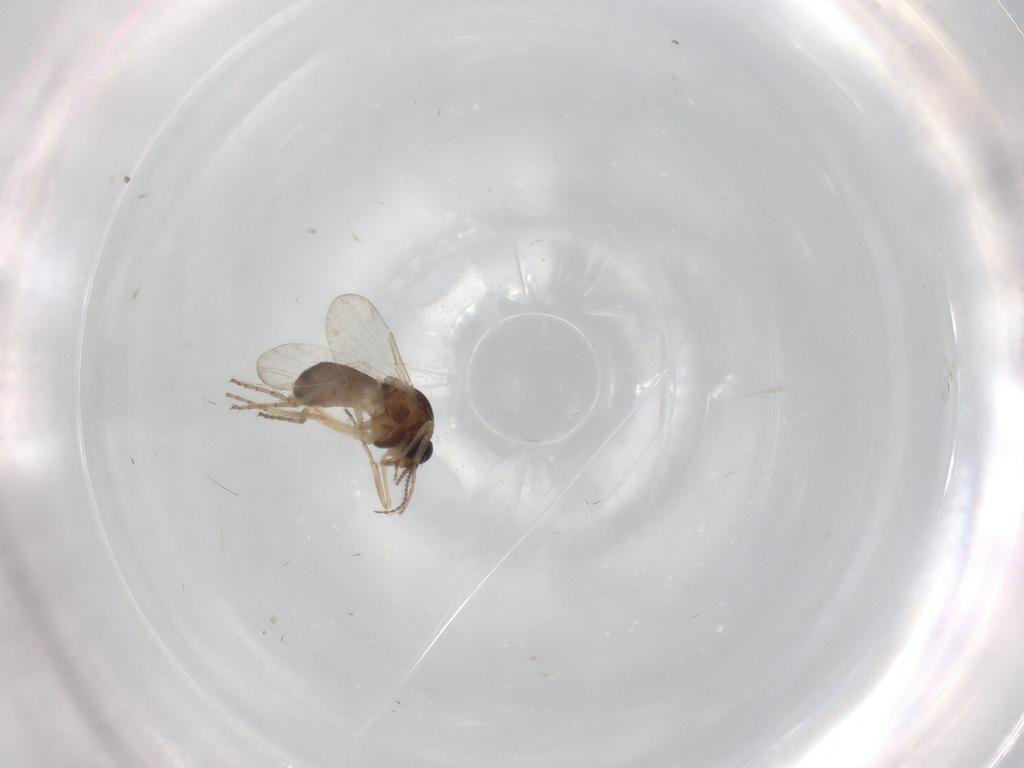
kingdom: Animalia
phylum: Arthropoda
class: Insecta
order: Diptera
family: Ceratopogonidae
